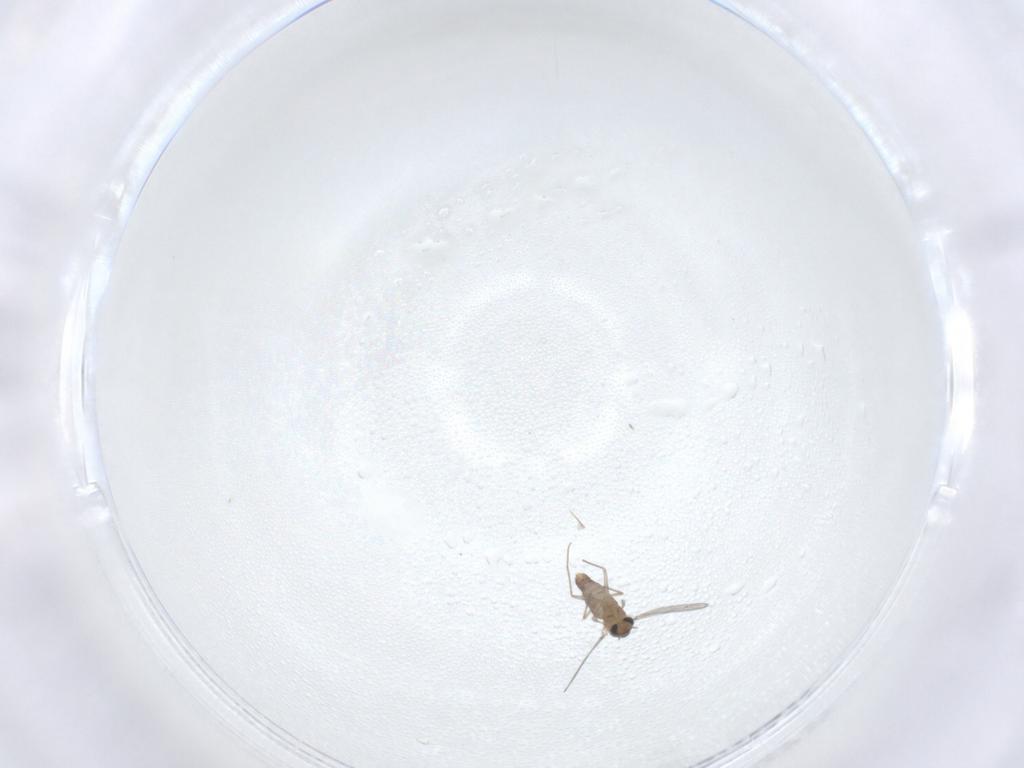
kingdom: Animalia
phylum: Arthropoda
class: Insecta
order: Diptera
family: Chironomidae
